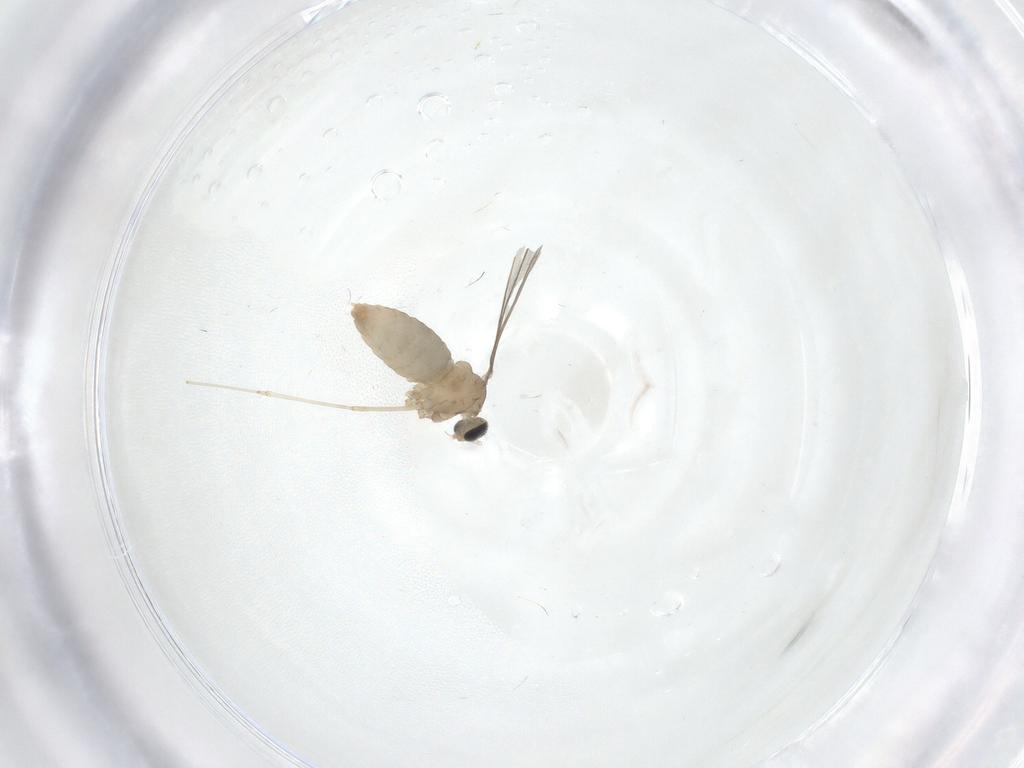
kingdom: Animalia
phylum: Arthropoda
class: Insecta
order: Diptera
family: Cecidomyiidae
